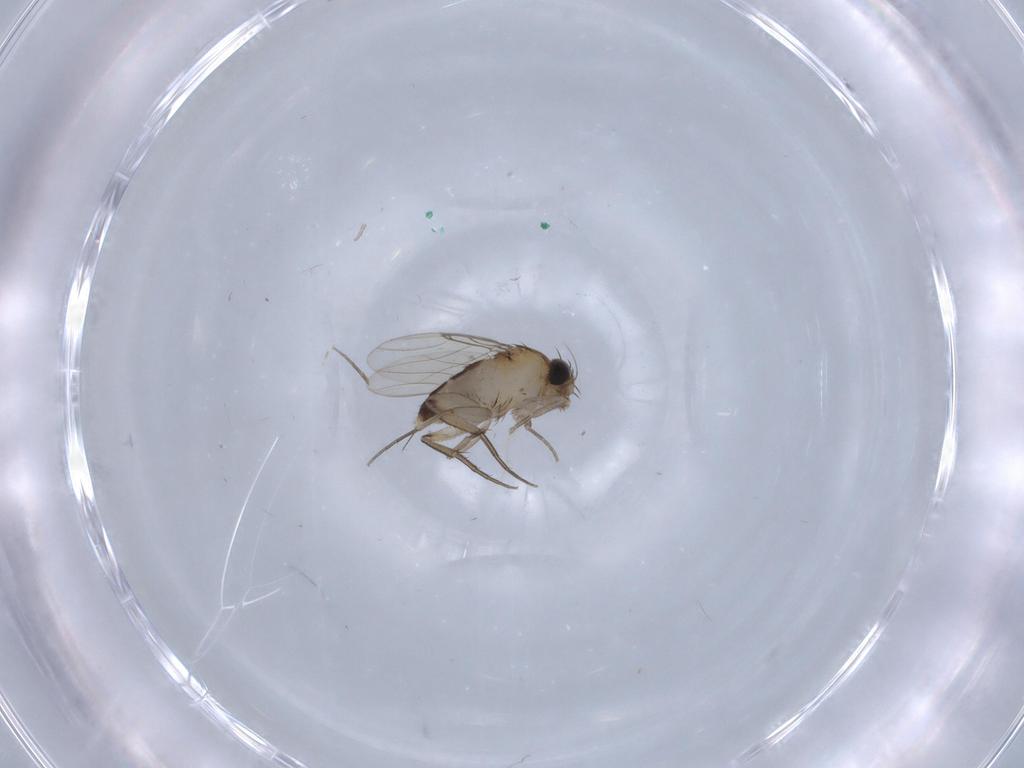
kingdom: Animalia
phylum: Arthropoda
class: Insecta
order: Diptera
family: Phoridae
